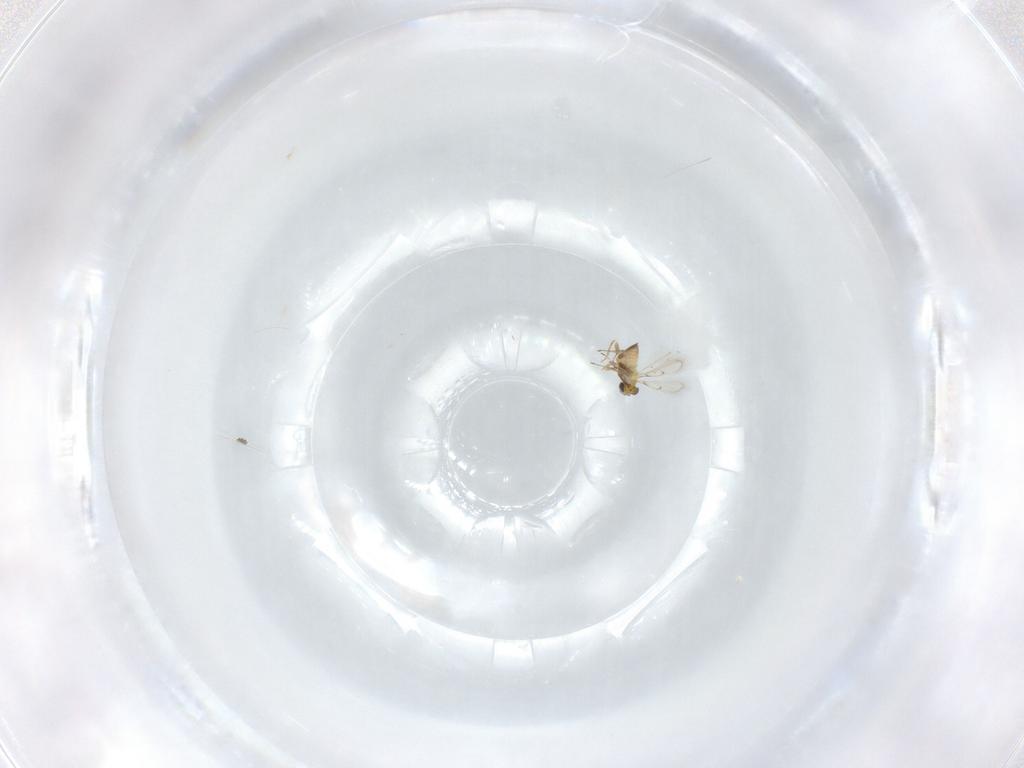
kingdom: Animalia
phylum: Arthropoda
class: Insecta
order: Hymenoptera
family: Trichogrammatidae
